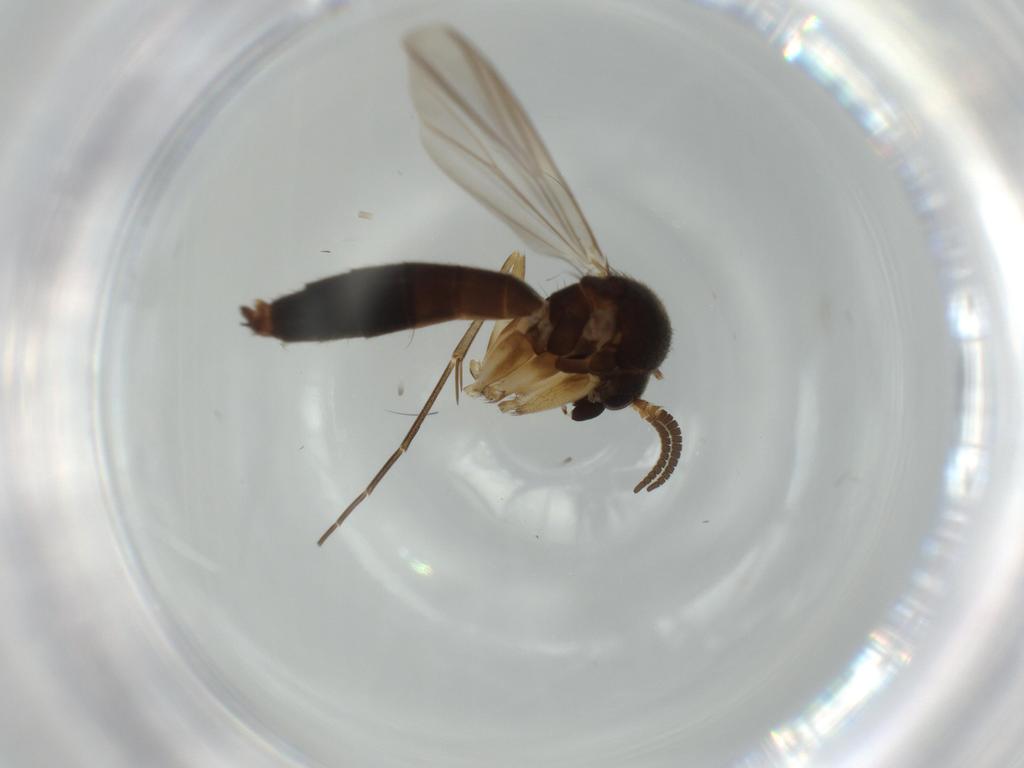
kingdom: Animalia
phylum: Arthropoda
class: Insecta
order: Diptera
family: Mycetophilidae
